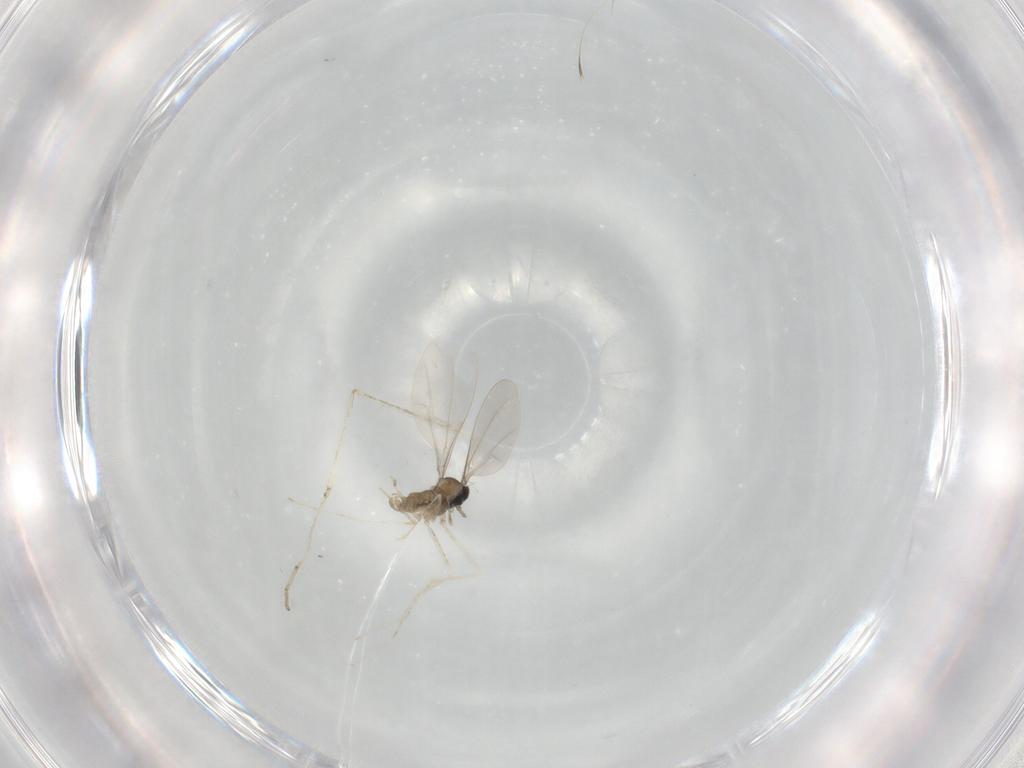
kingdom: Animalia
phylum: Arthropoda
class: Insecta
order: Diptera
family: Cecidomyiidae
